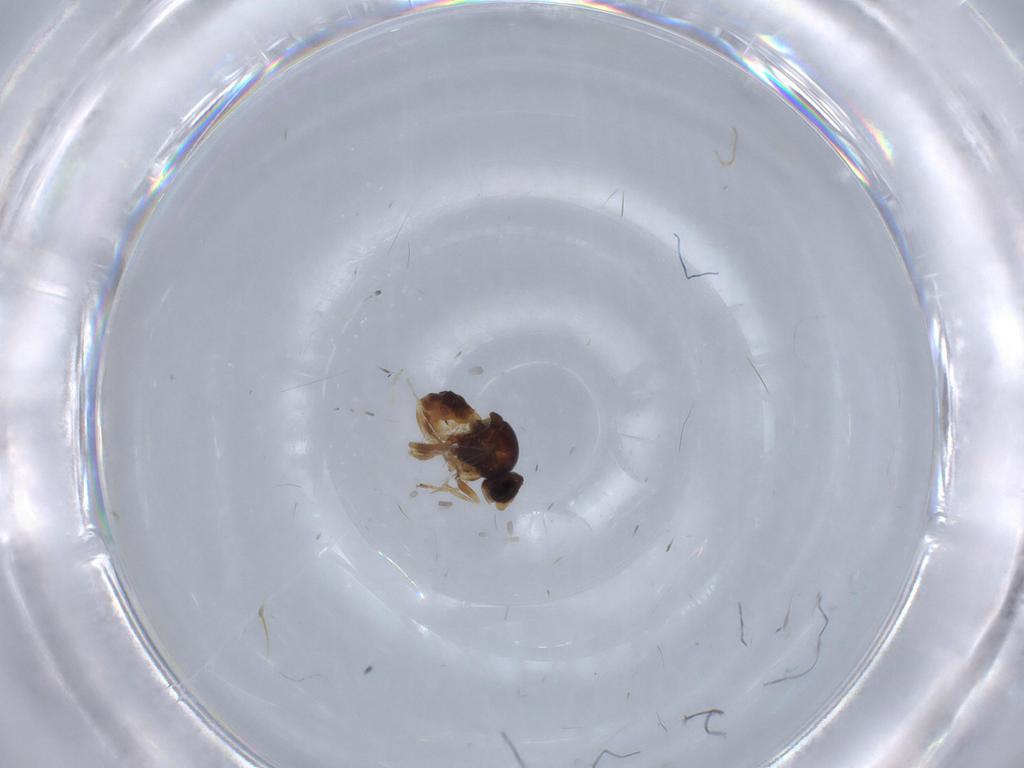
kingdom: Animalia
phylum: Arthropoda
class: Insecta
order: Diptera
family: Chloropidae
